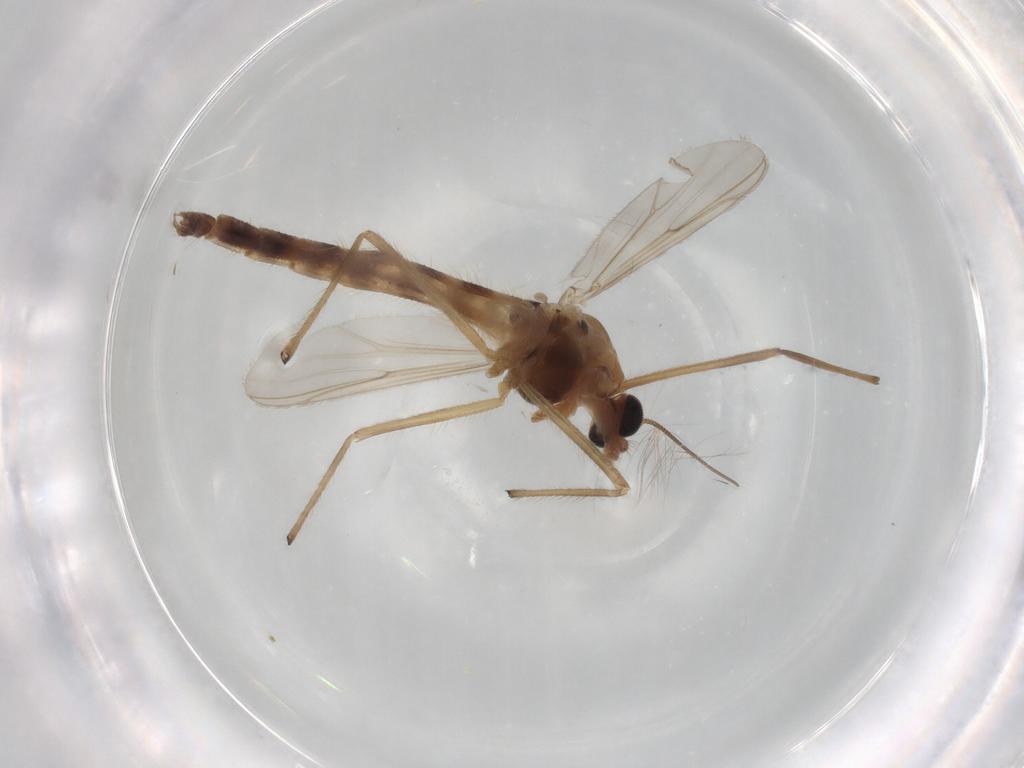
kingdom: Animalia
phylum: Arthropoda
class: Insecta
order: Diptera
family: Chironomidae
